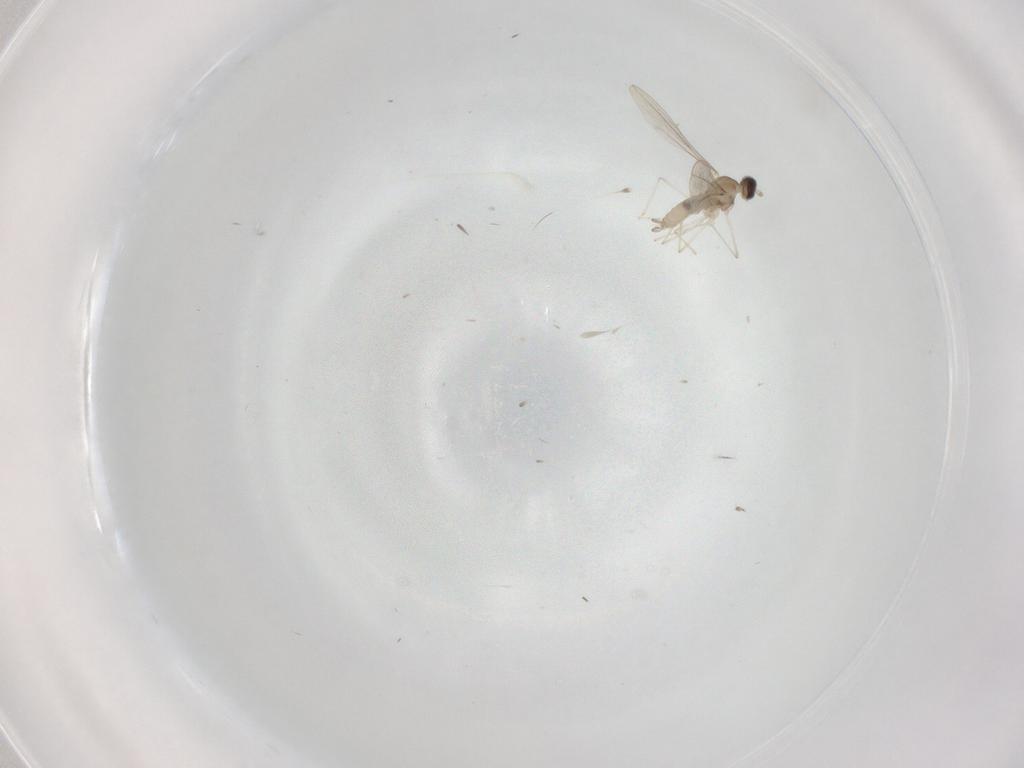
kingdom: Animalia
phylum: Arthropoda
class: Insecta
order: Diptera
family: Cecidomyiidae
